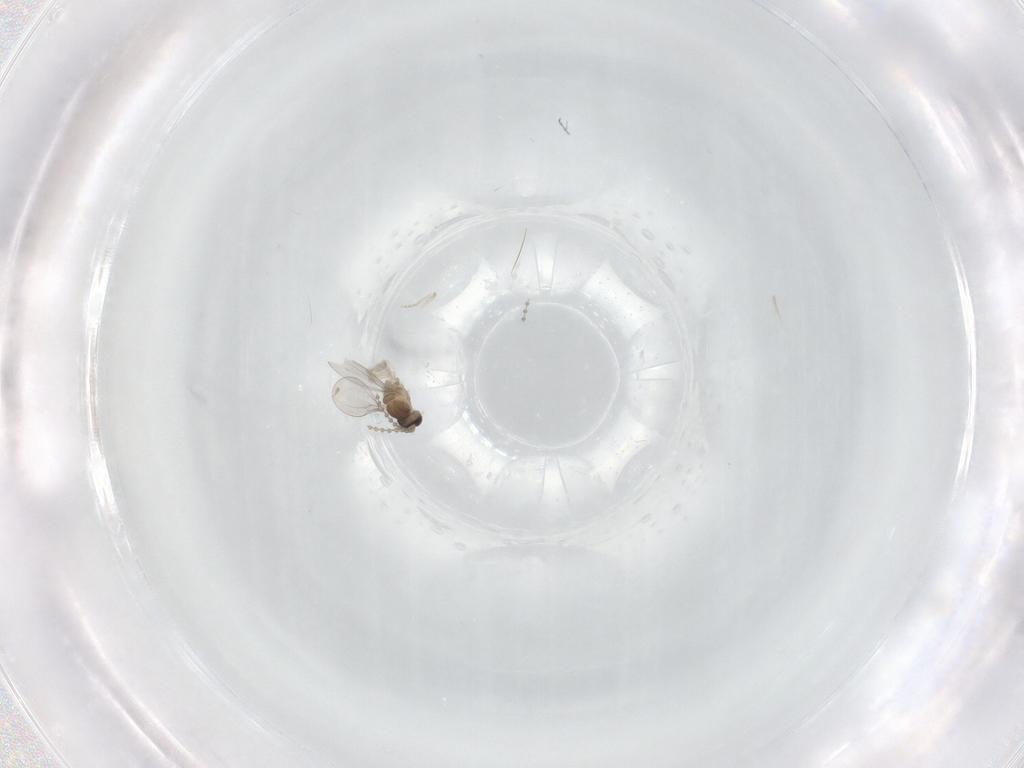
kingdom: Animalia
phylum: Arthropoda
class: Insecta
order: Diptera
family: Cecidomyiidae
